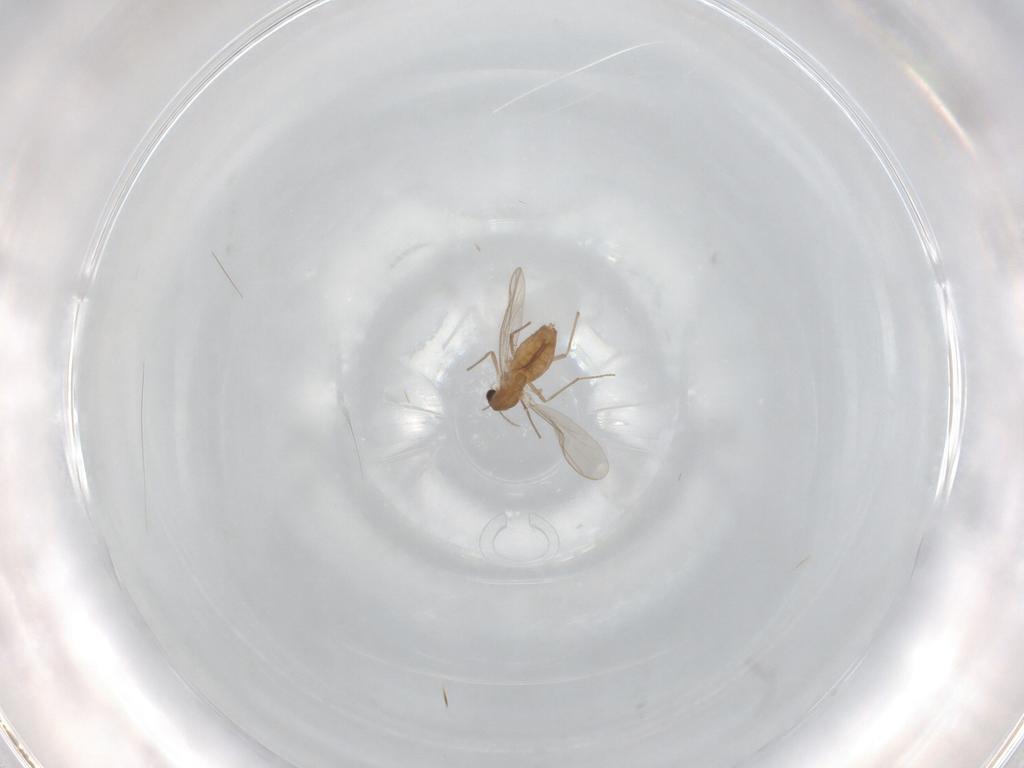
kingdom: Animalia
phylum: Arthropoda
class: Insecta
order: Diptera
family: Chironomidae
